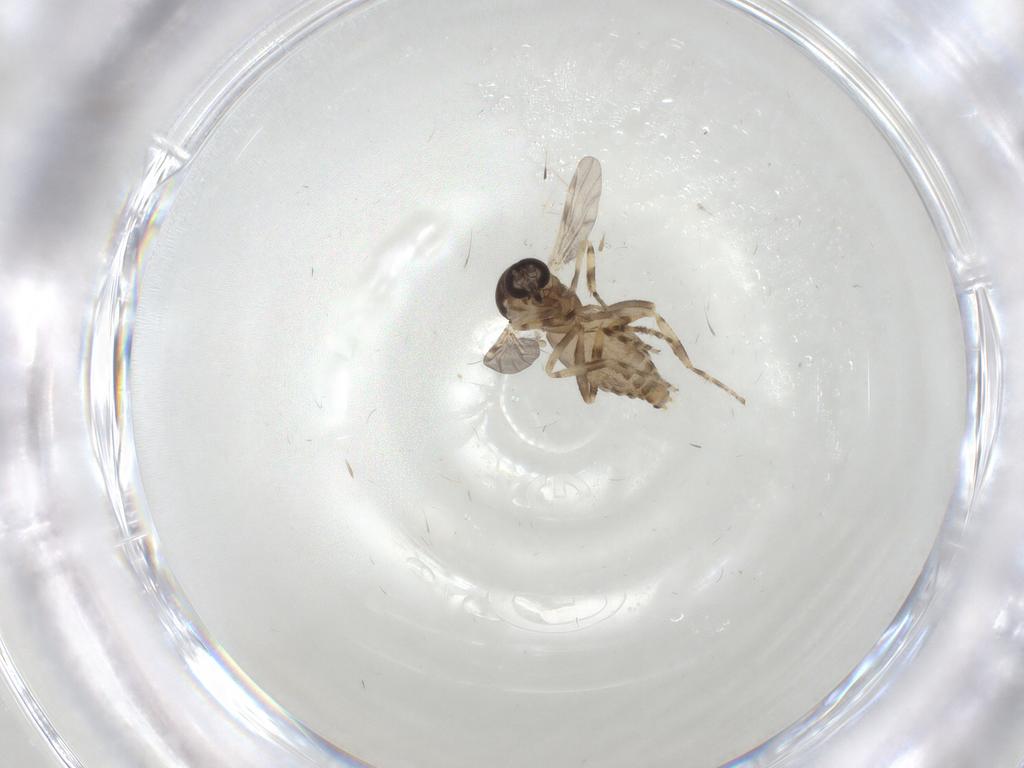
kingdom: Animalia
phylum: Arthropoda
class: Insecta
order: Diptera
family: Ceratopogonidae
